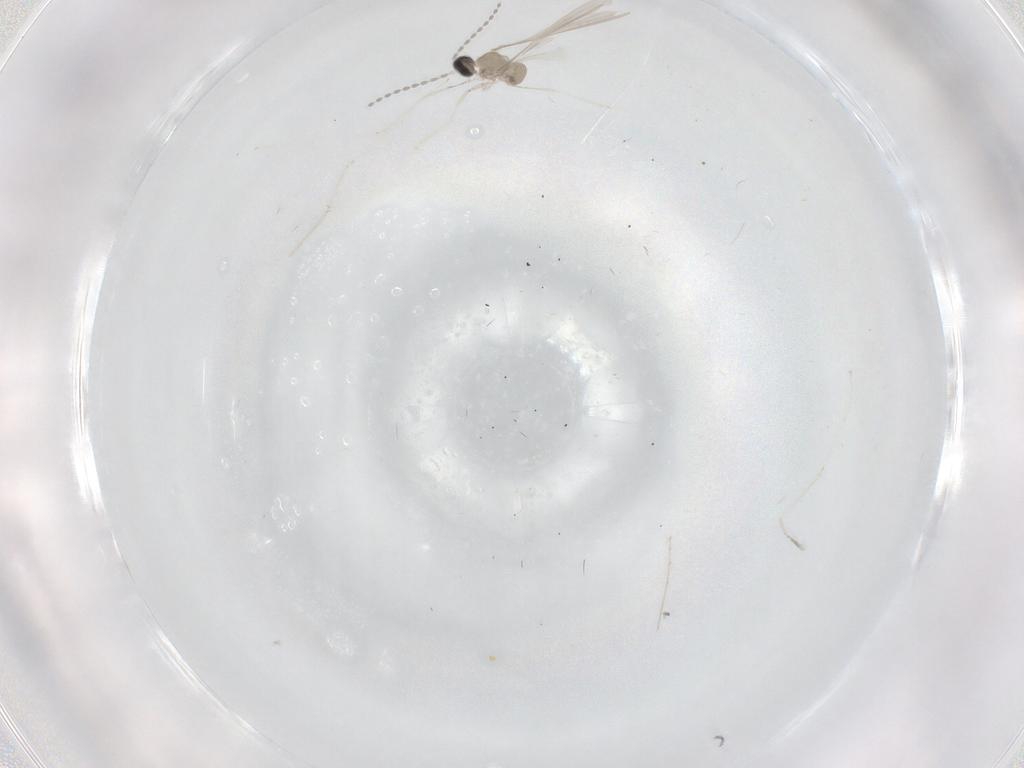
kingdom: Animalia
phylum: Arthropoda
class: Insecta
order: Diptera
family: Cecidomyiidae
